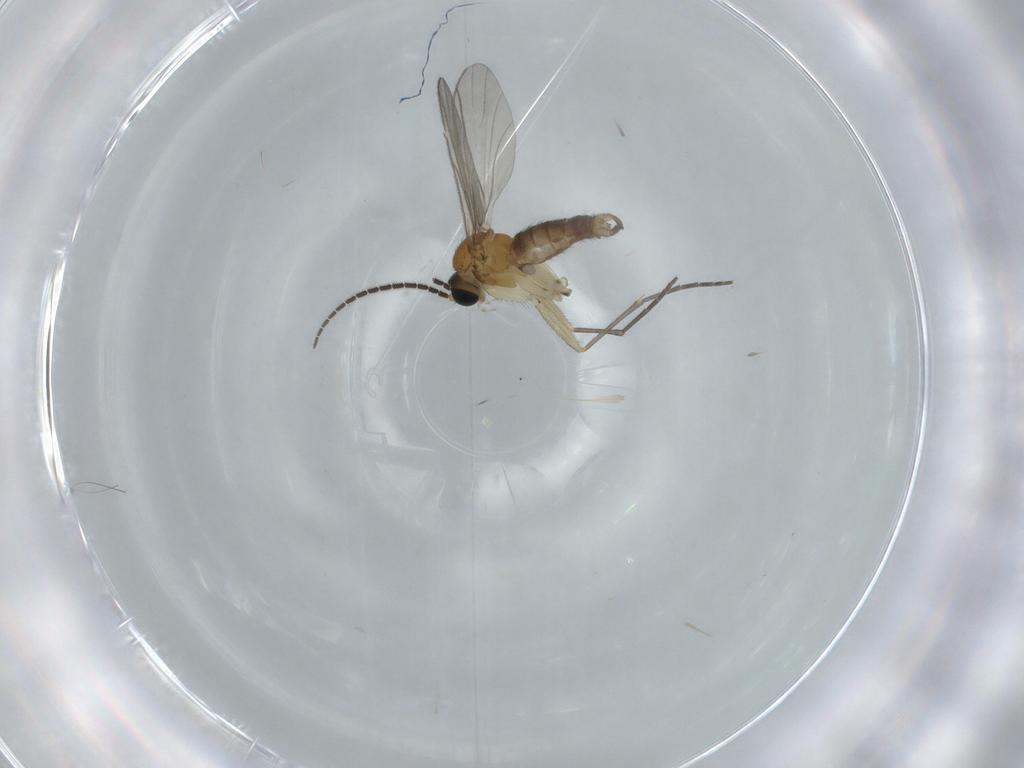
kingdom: Animalia
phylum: Arthropoda
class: Insecta
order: Diptera
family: Sciaridae
